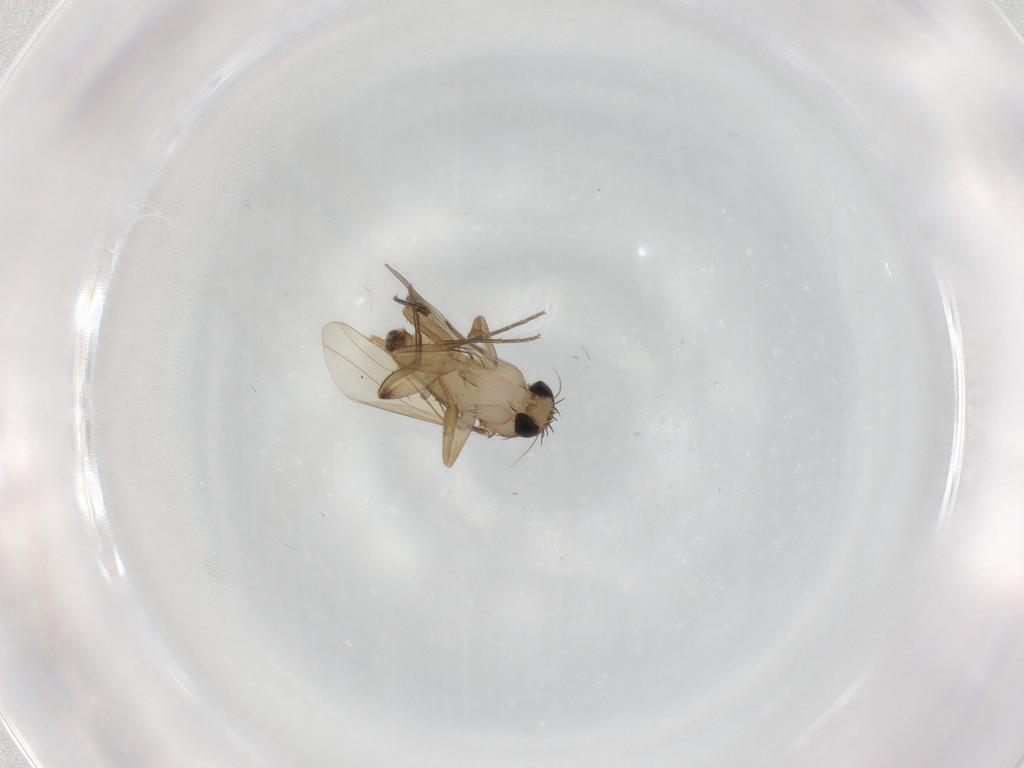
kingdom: Animalia
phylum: Arthropoda
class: Insecta
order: Diptera
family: Phoridae
